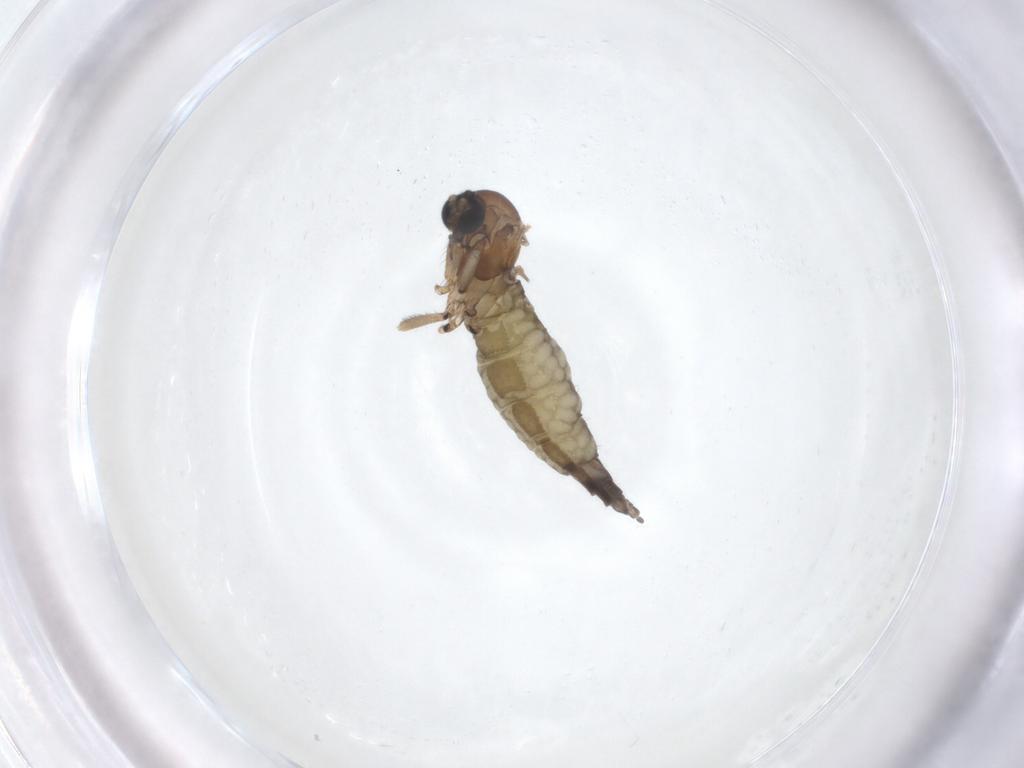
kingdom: Animalia
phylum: Arthropoda
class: Insecta
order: Diptera
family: Sciaridae
